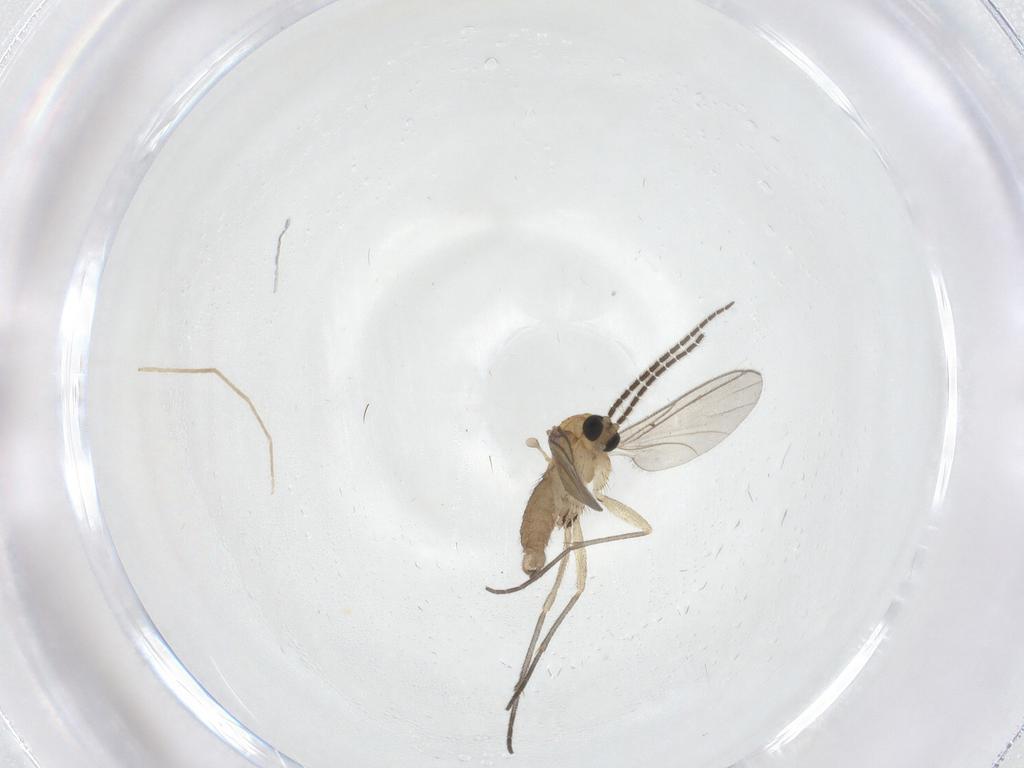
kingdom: Animalia
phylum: Arthropoda
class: Insecta
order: Diptera
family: Sciaridae
